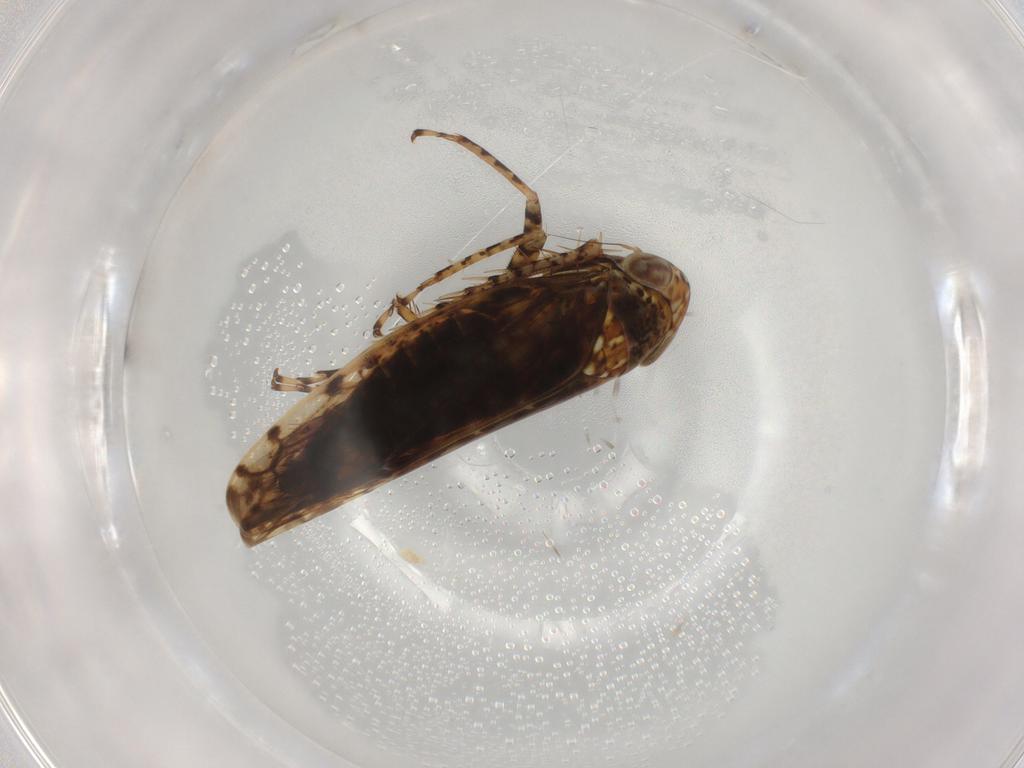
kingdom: Animalia
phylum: Arthropoda
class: Insecta
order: Hemiptera
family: Cicadellidae
